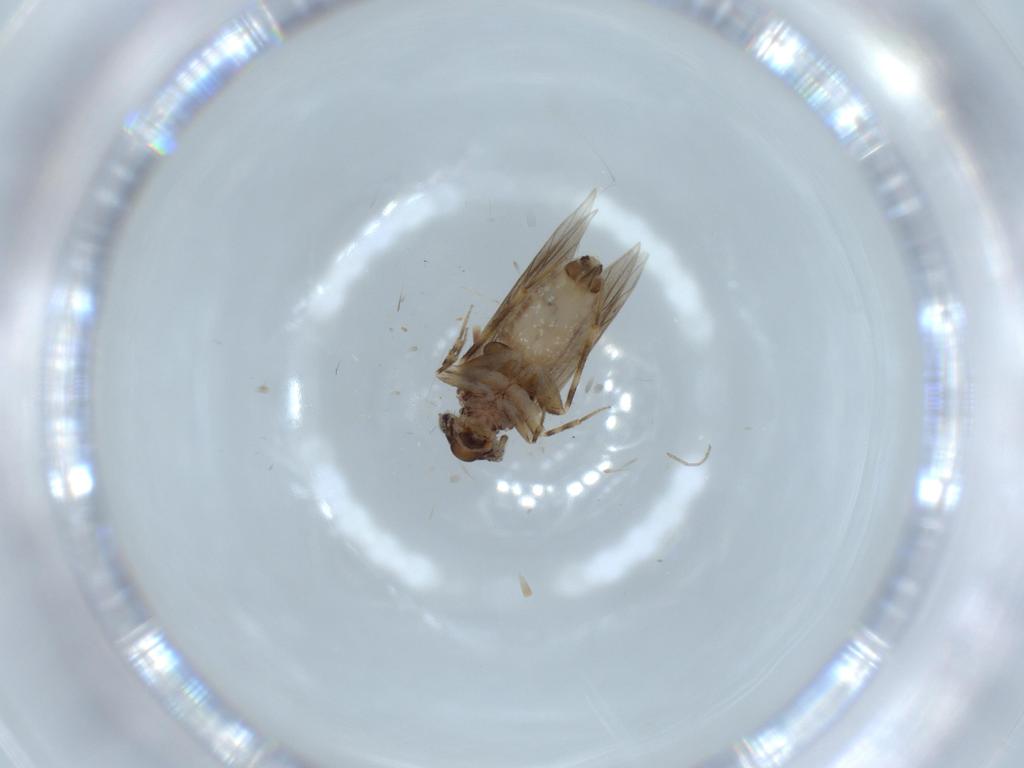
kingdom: Animalia
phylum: Arthropoda
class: Insecta
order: Psocodea
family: Lepidopsocidae
